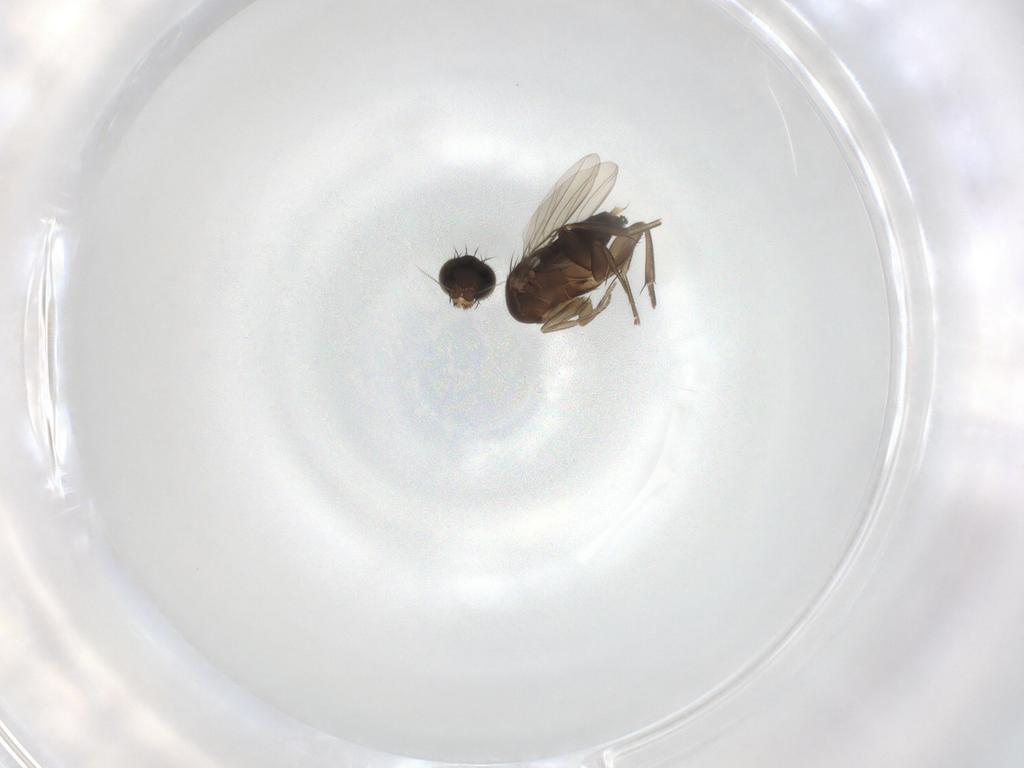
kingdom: Animalia
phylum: Arthropoda
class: Insecta
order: Diptera
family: Phoridae
